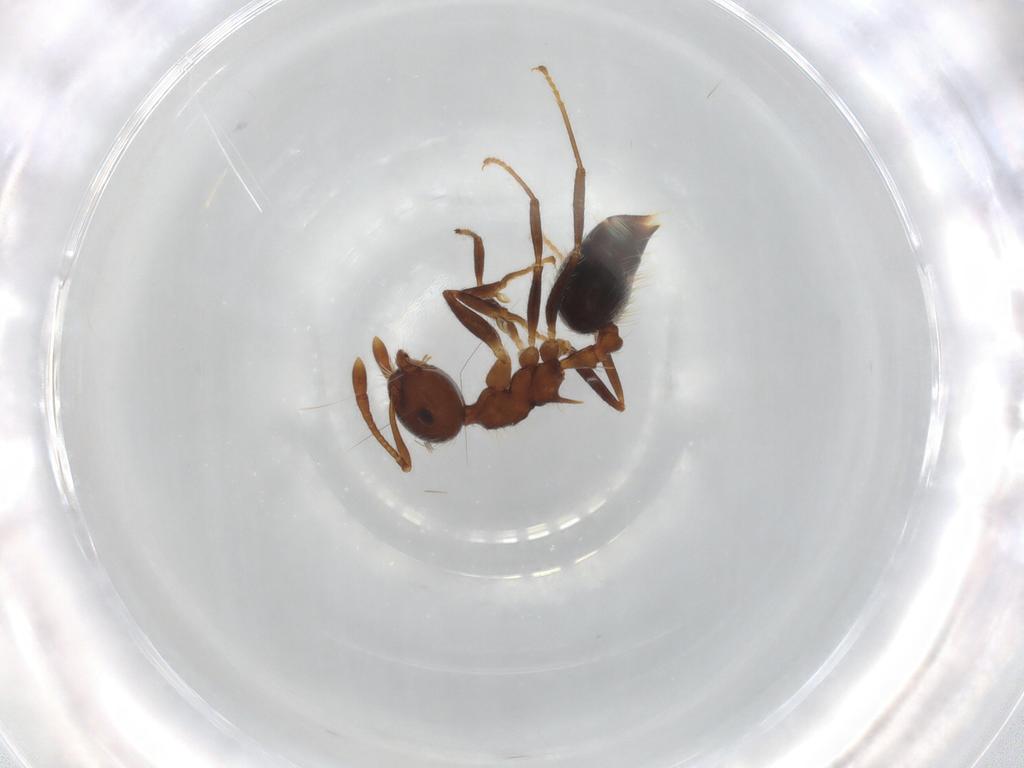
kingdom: Animalia
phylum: Arthropoda
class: Insecta
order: Hymenoptera
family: Formicidae
